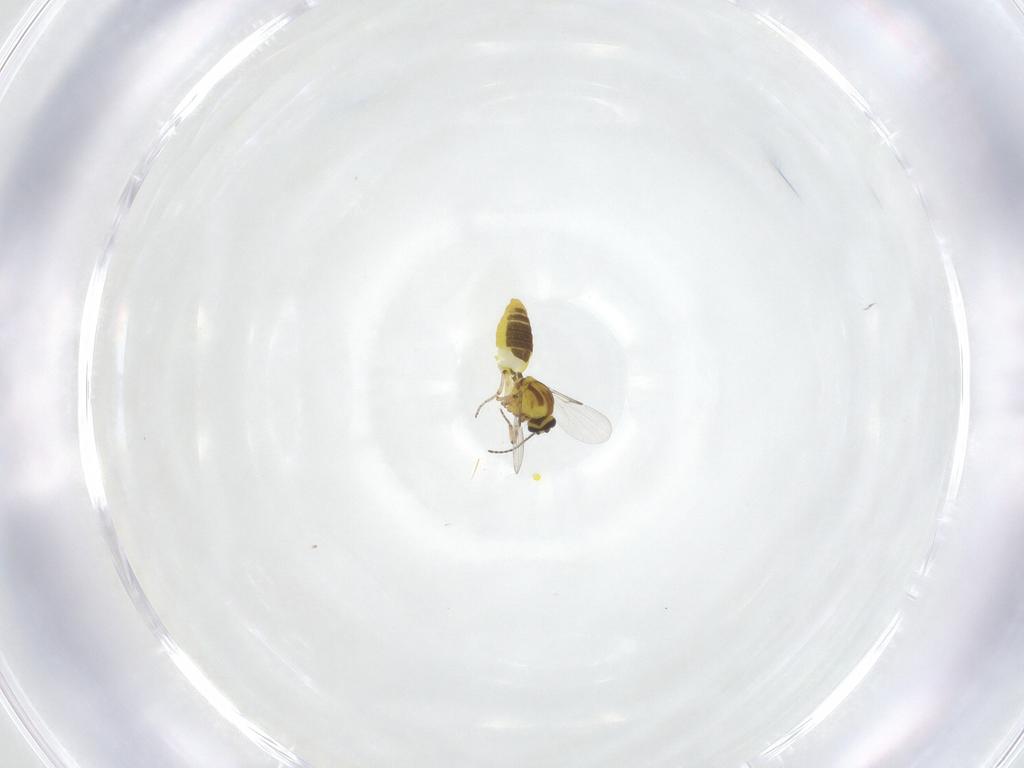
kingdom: Animalia
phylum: Arthropoda
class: Insecta
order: Diptera
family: Ceratopogonidae
